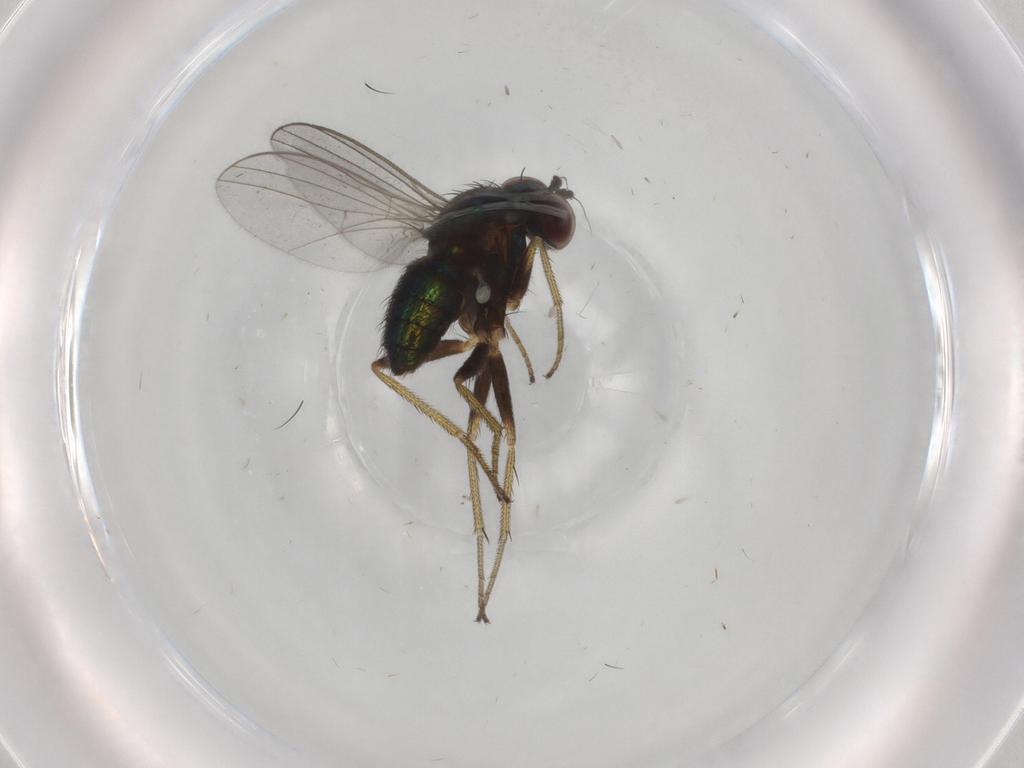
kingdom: Animalia
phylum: Arthropoda
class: Insecta
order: Diptera
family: Dolichopodidae
